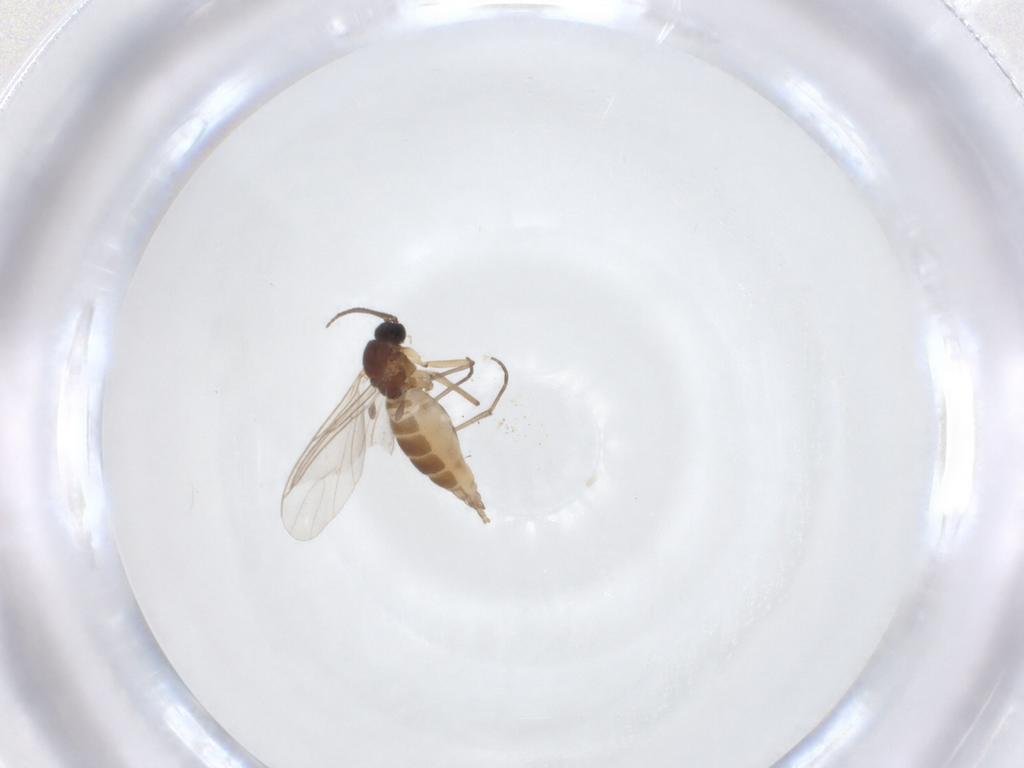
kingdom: Animalia
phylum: Arthropoda
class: Insecta
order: Diptera
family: Sciaridae
